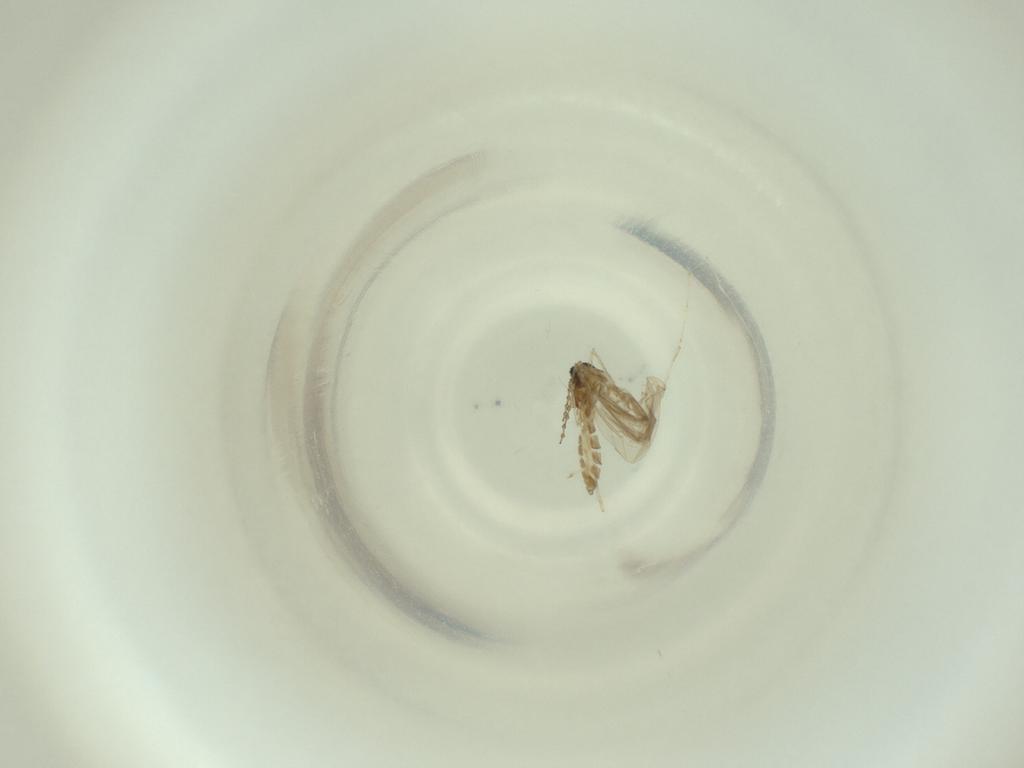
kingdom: Animalia
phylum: Arthropoda
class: Insecta
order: Diptera
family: Cecidomyiidae
